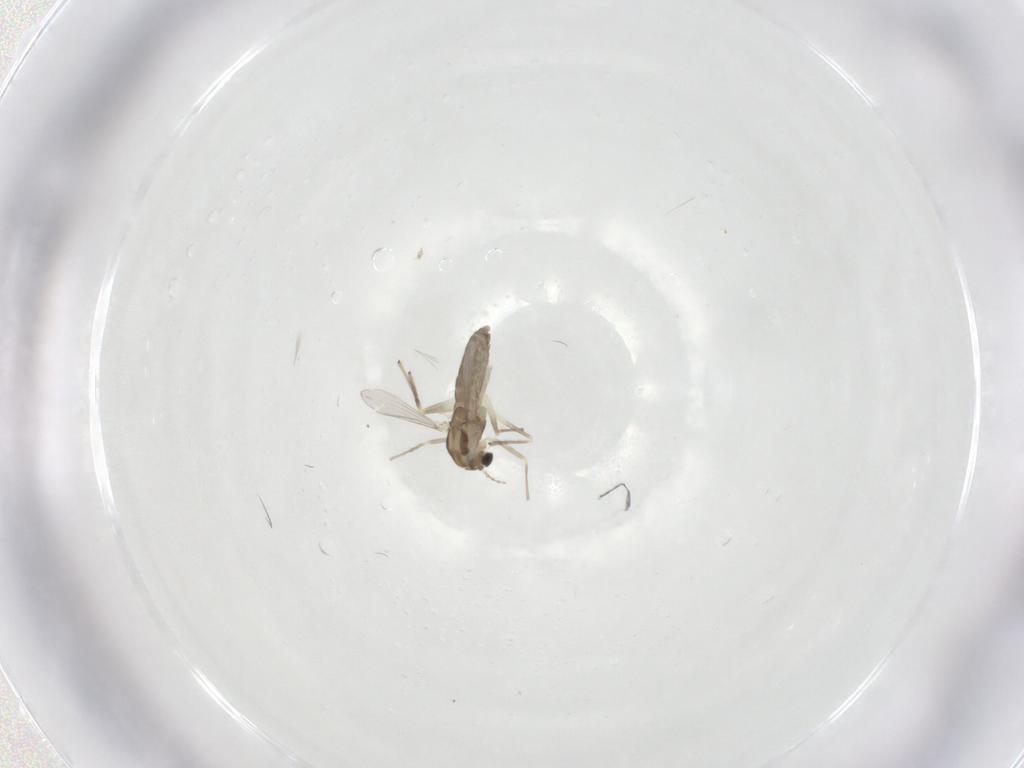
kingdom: Animalia
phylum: Arthropoda
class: Insecta
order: Diptera
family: Chironomidae
